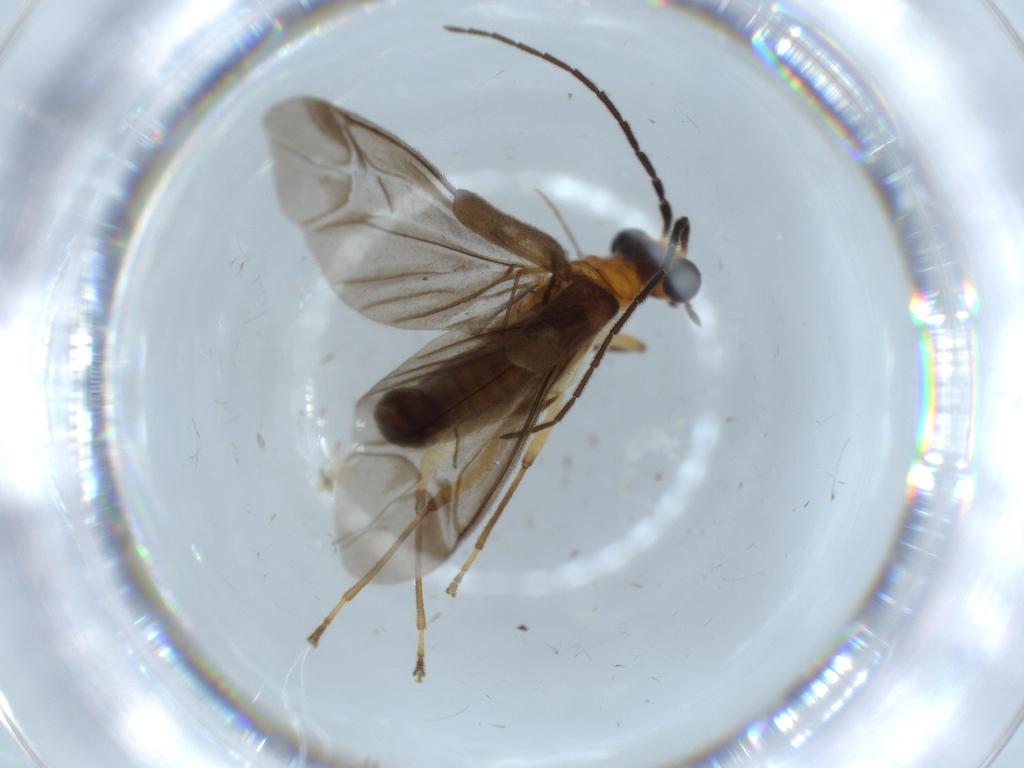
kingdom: Animalia
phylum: Arthropoda
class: Insecta
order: Coleoptera
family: Cantharidae
